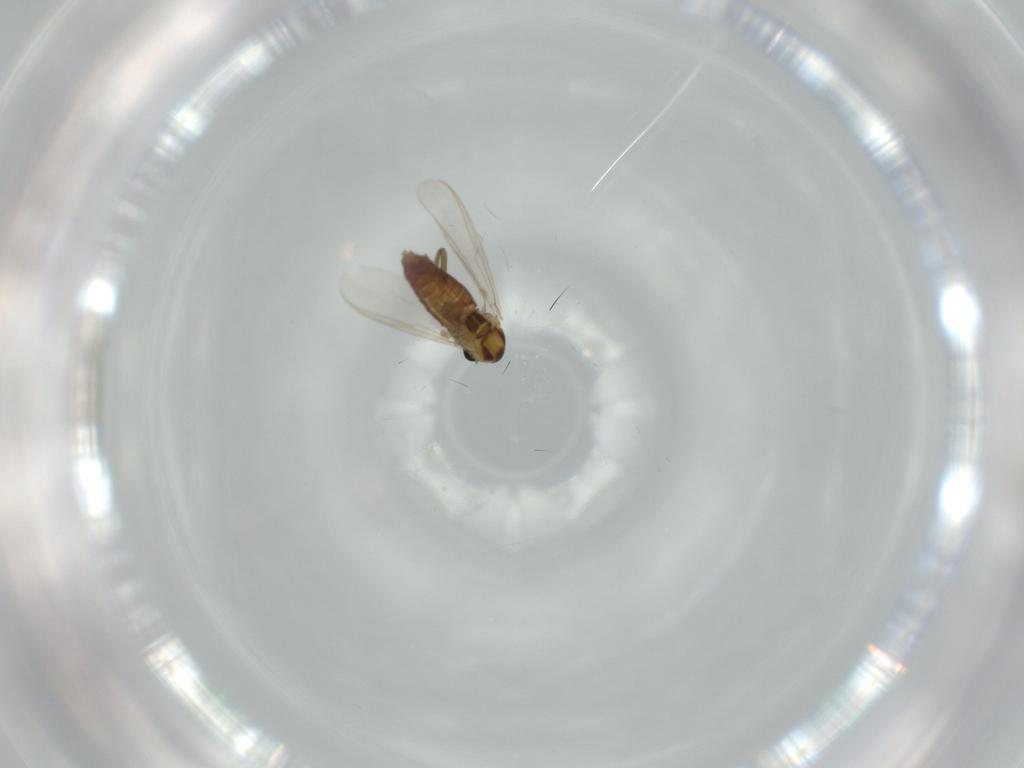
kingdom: Animalia
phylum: Arthropoda
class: Insecta
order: Diptera
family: Chironomidae
